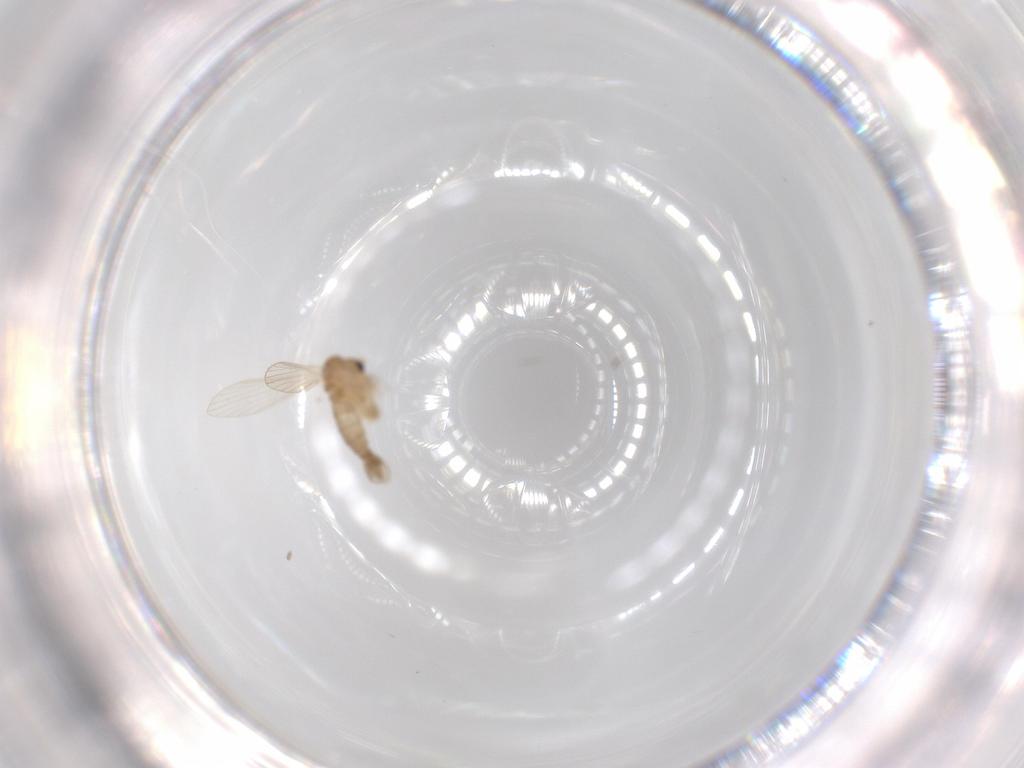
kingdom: Animalia
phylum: Arthropoda
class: Insecta
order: Diptera
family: Psychodidae
